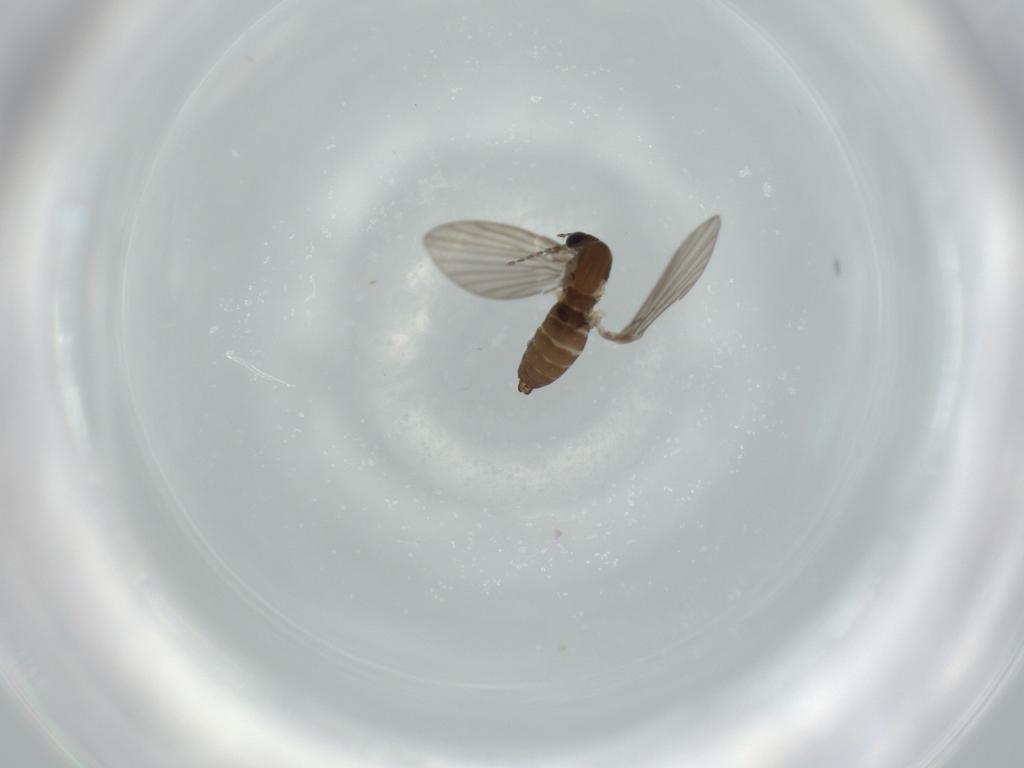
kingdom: Animalia
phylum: Arthropoda
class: Insecta
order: Diptera
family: Psychodidae
